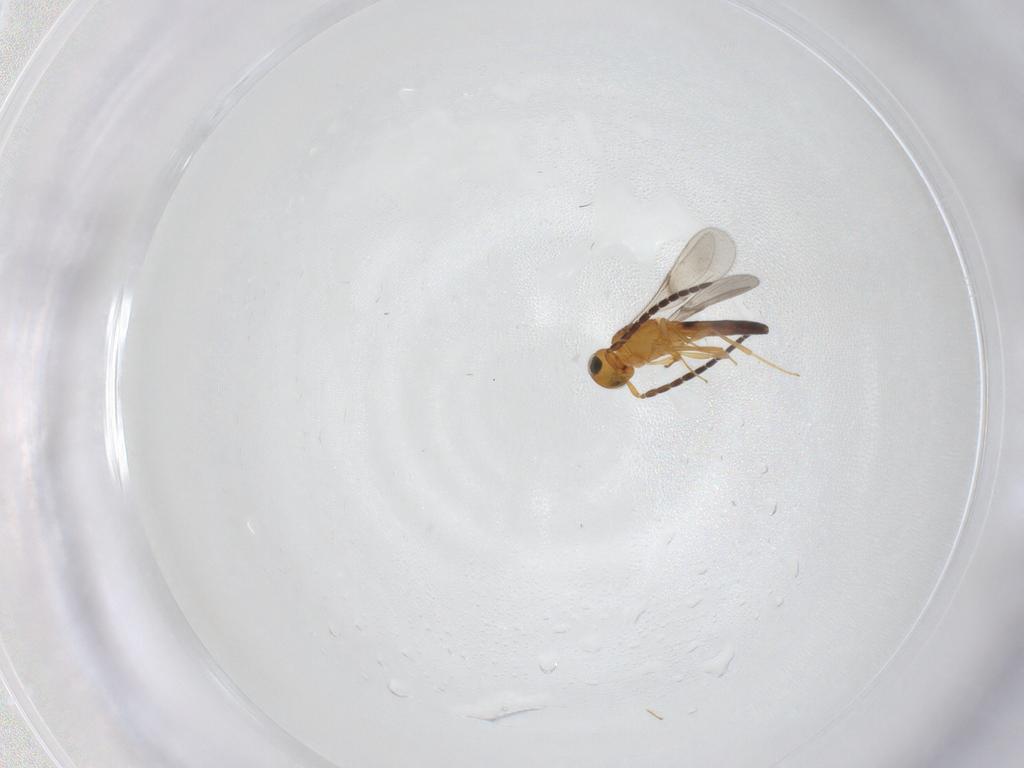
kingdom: Animalia
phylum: Arthropoda
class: Insecta
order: Hymenoptera
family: Scelionidae
